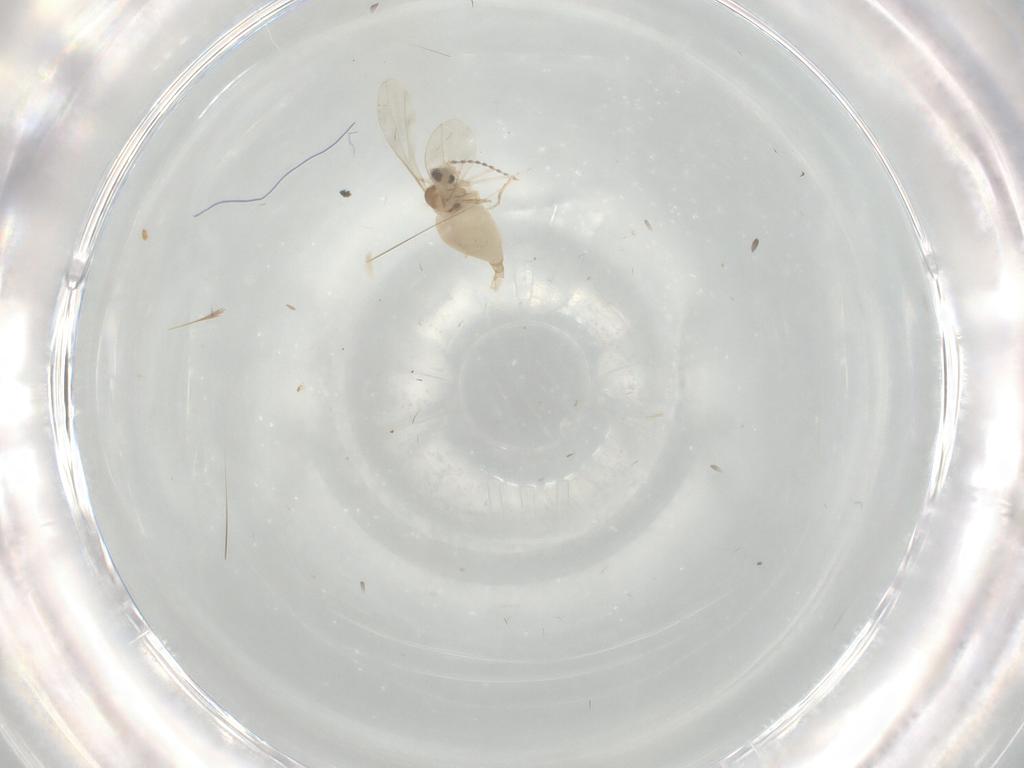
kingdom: Animalia
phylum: Arthropoda
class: Insecta
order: Diptera
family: Cecidomyiidae
